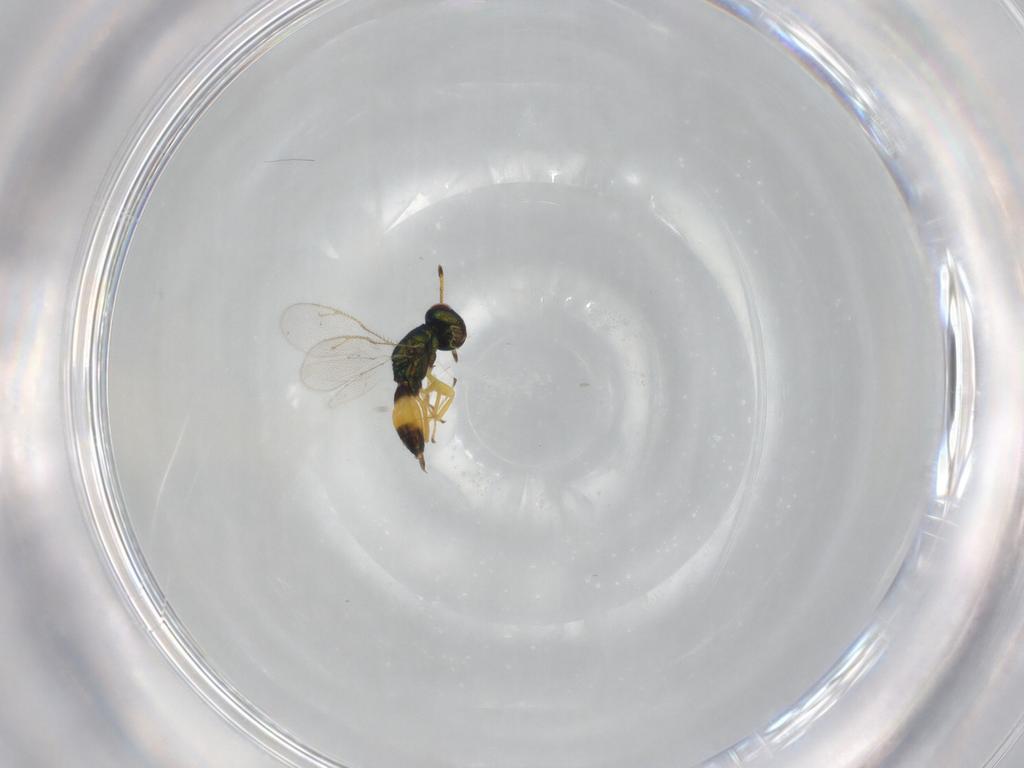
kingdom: Animalia
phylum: Arthropoda
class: Insecta
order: Hymenoptera
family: Pteromalidae
